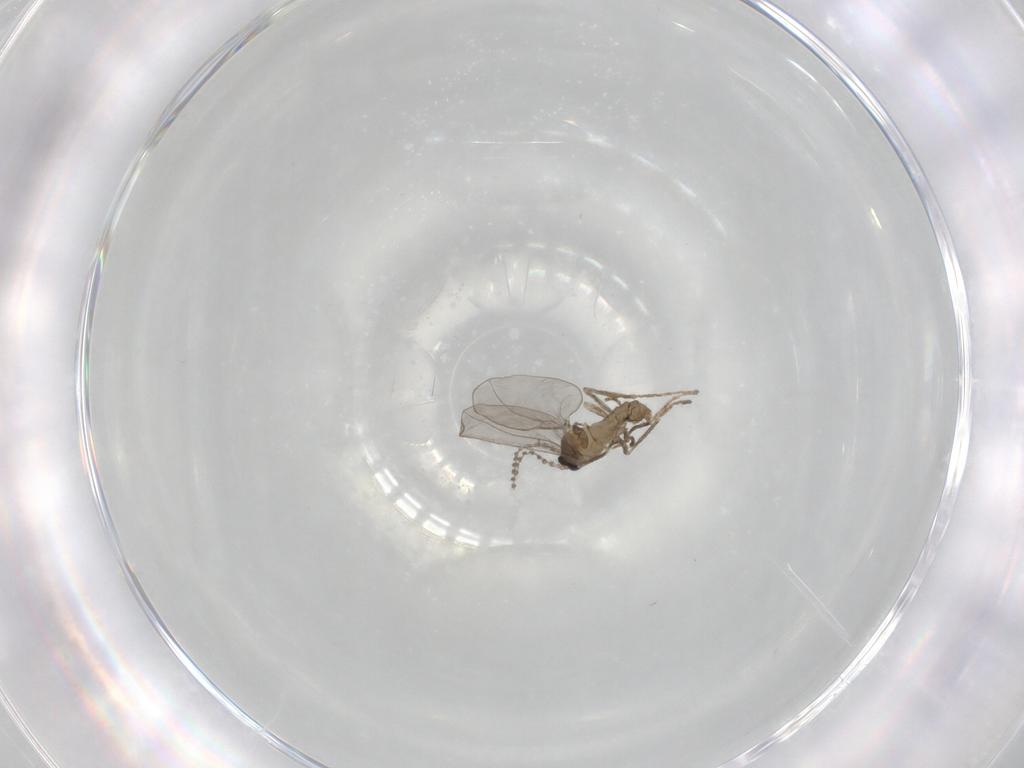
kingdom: Animalia
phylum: Arthropoda
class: Insecta
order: Diptera
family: Cecidomyiidae
